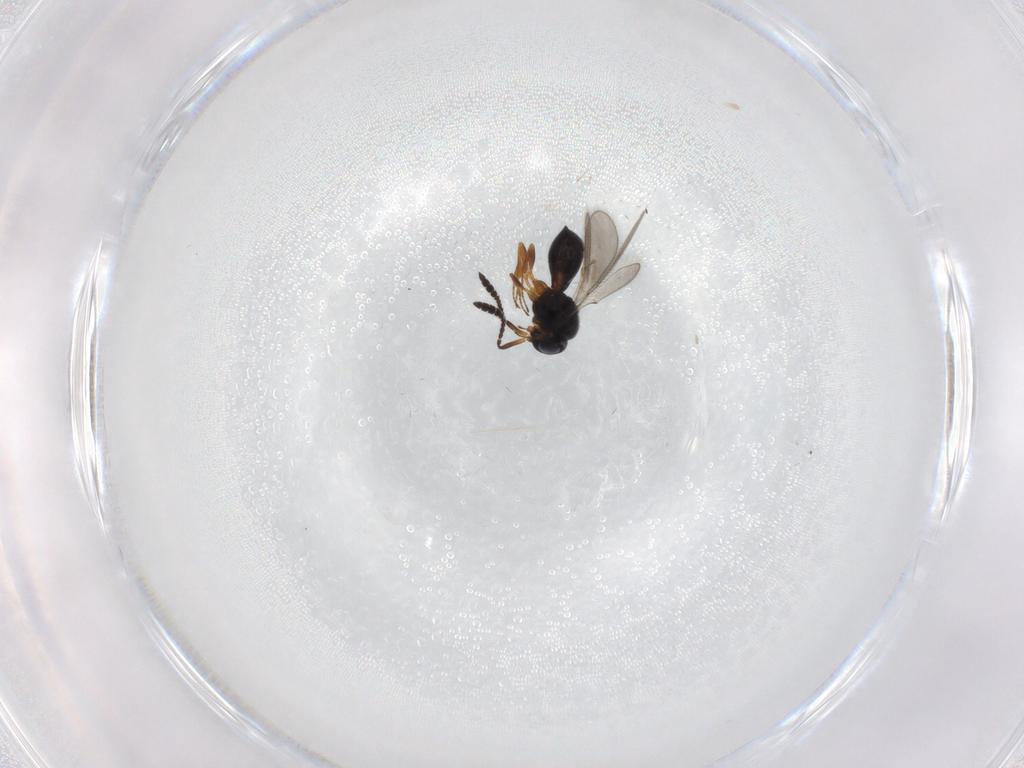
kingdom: Animalia
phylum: Arthropoda
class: Insecta
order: Hymenoptera
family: Scelionidae
